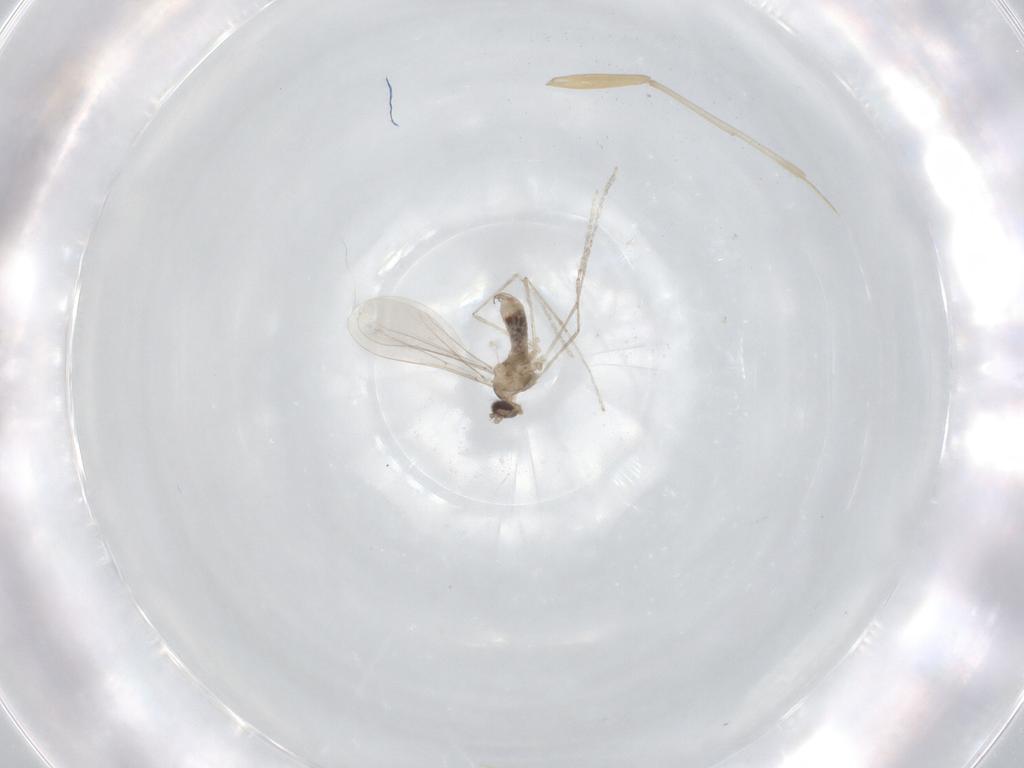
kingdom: Animalia
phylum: Arthropoda
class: Insecta
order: Diptera
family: Cecidomyiidae
